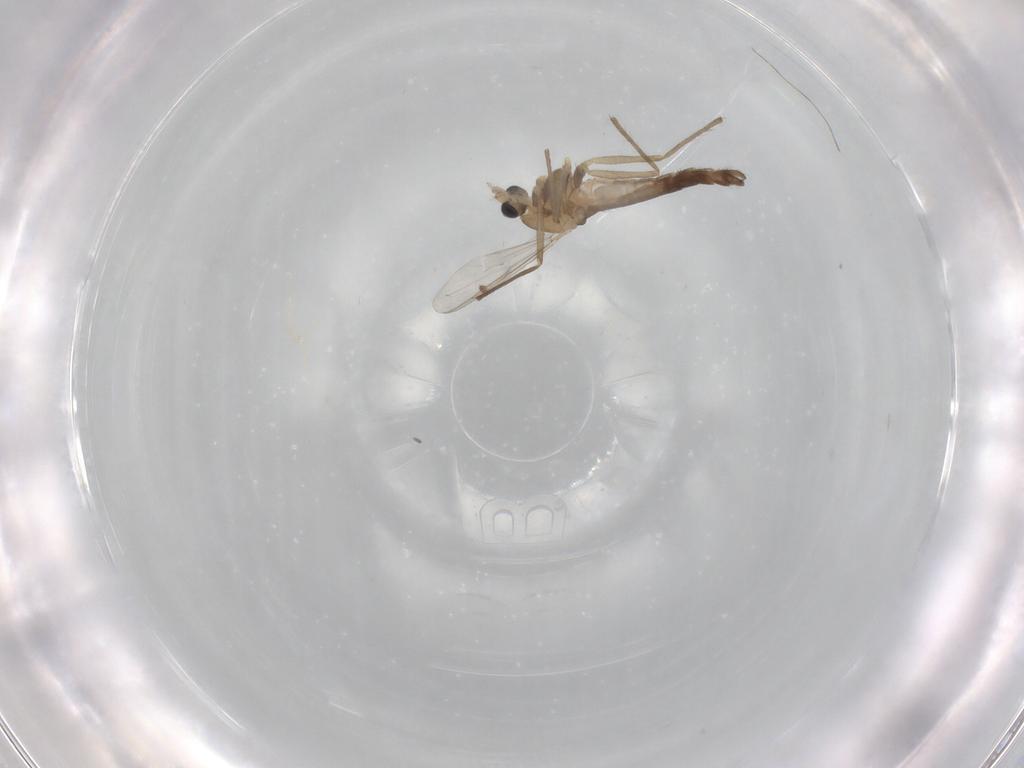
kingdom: Animalia
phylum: Arthropoda
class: Insecta
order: Diptera
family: Chironomidae
